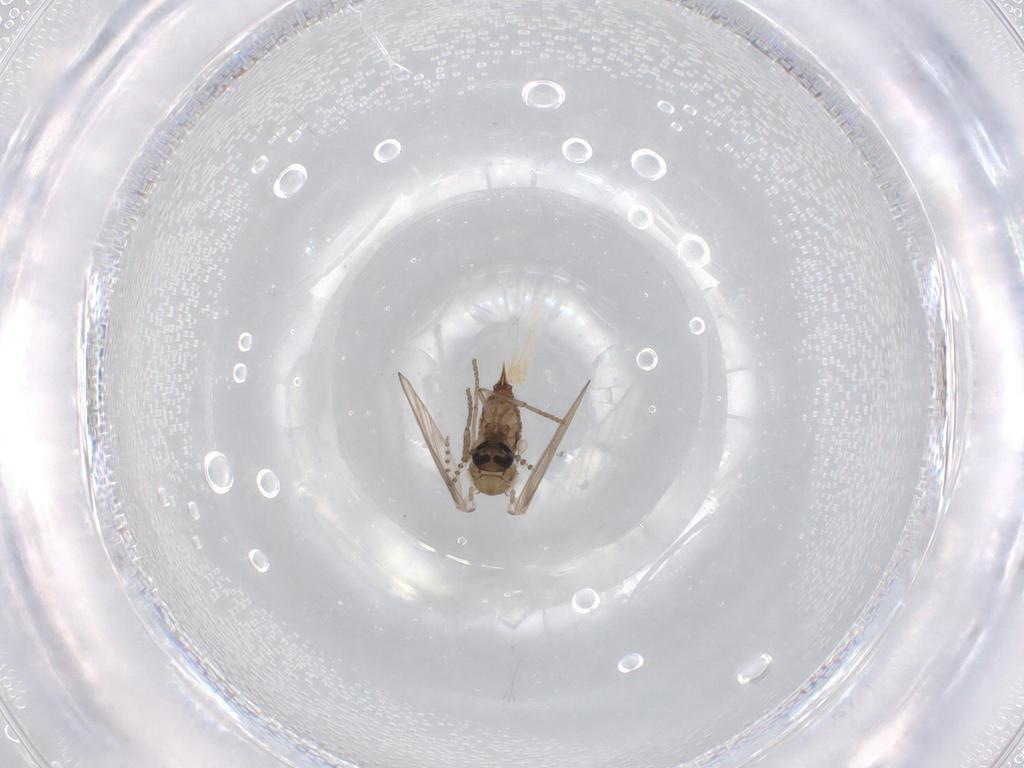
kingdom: Animalia
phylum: Arthropoda
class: Insecta
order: Diptera
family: Psychodidae
